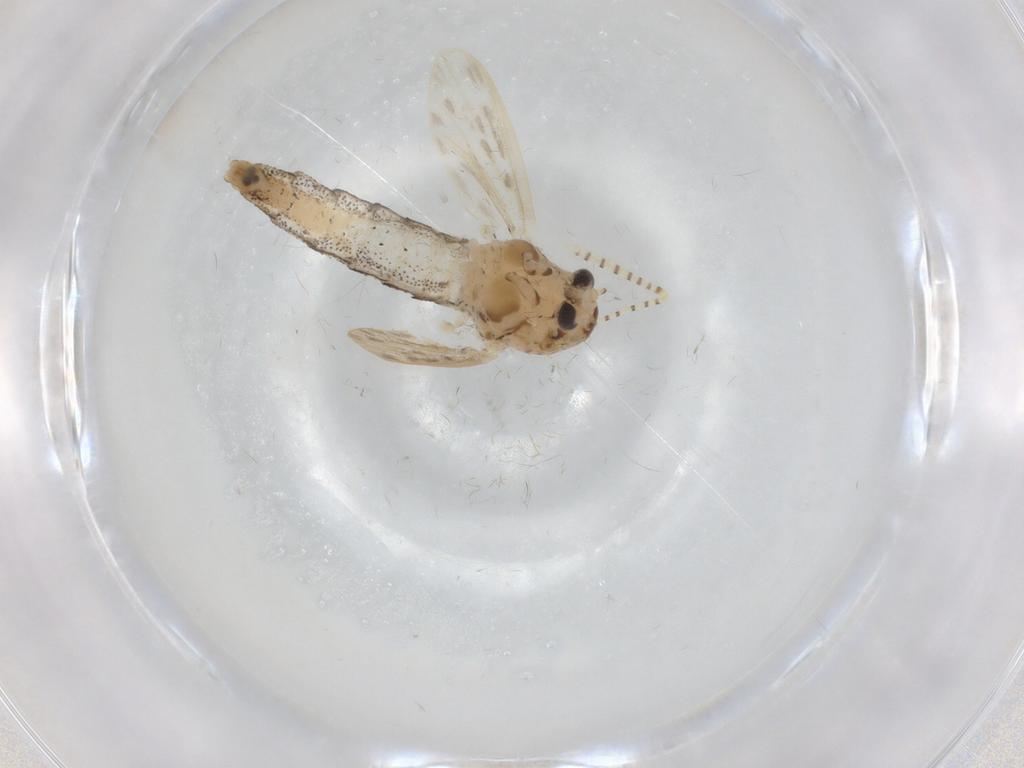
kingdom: Animalia
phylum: Arthropoda
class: Insecta
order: Diptera
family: Chaoboridae
